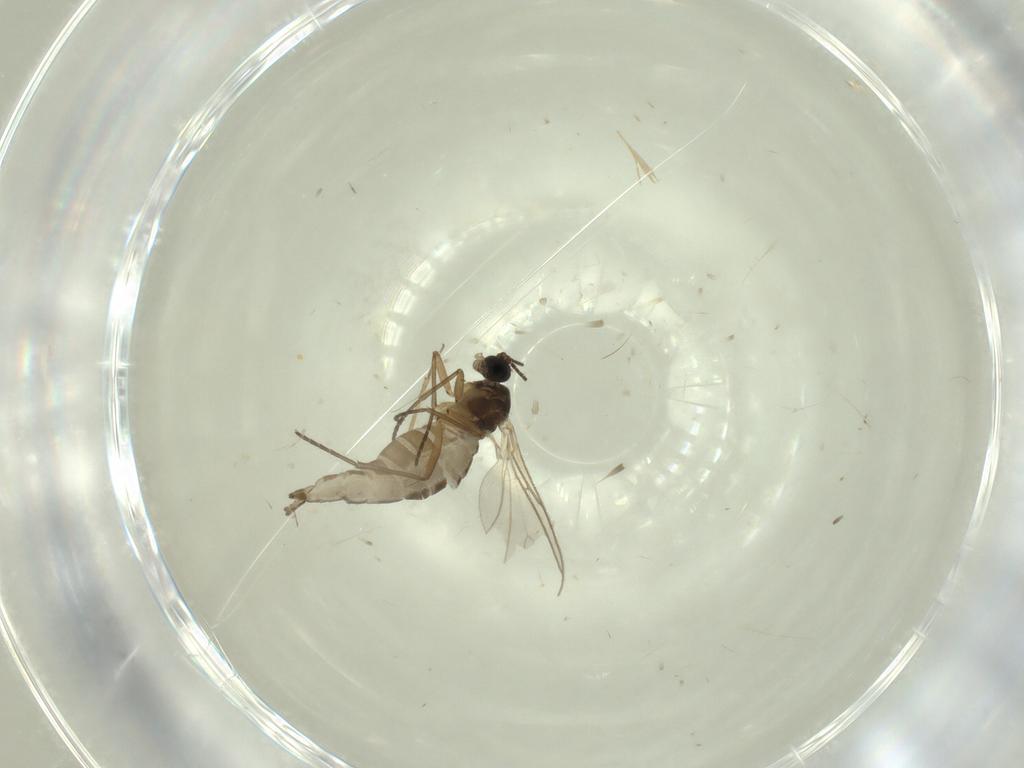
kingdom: Animalia
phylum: Arthropoda
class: Insecta
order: Diptera
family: Sciaridae
